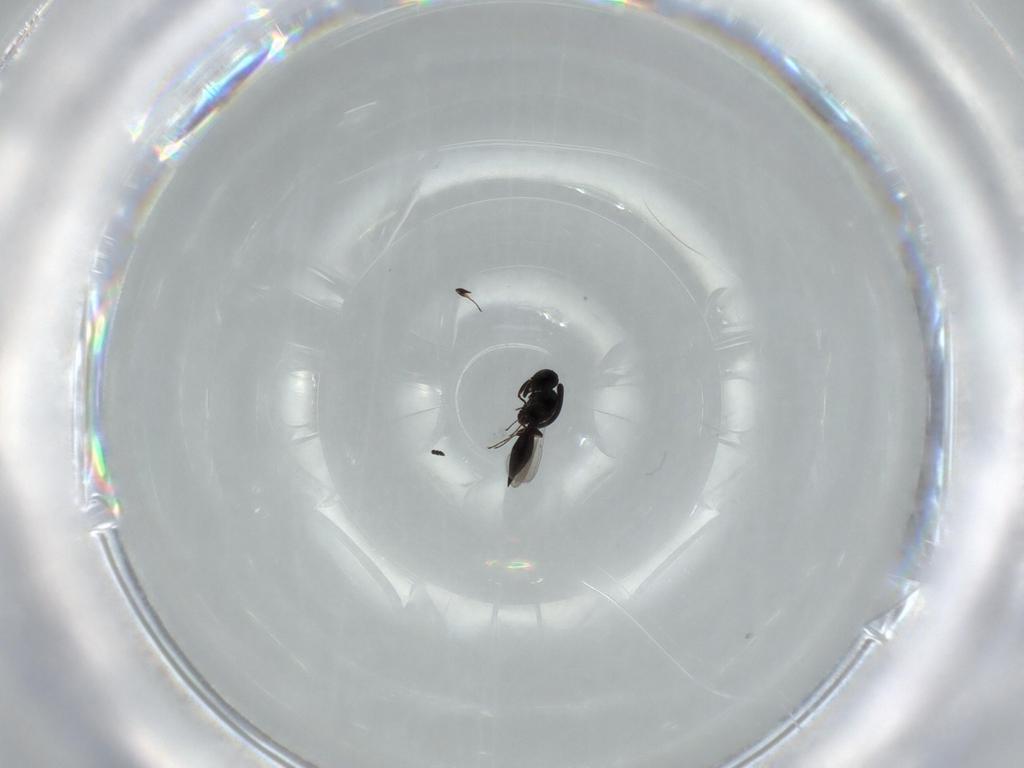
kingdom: Animalia
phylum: Arthropoda
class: Insecta
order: Hymenoptera
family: Platygastridae
